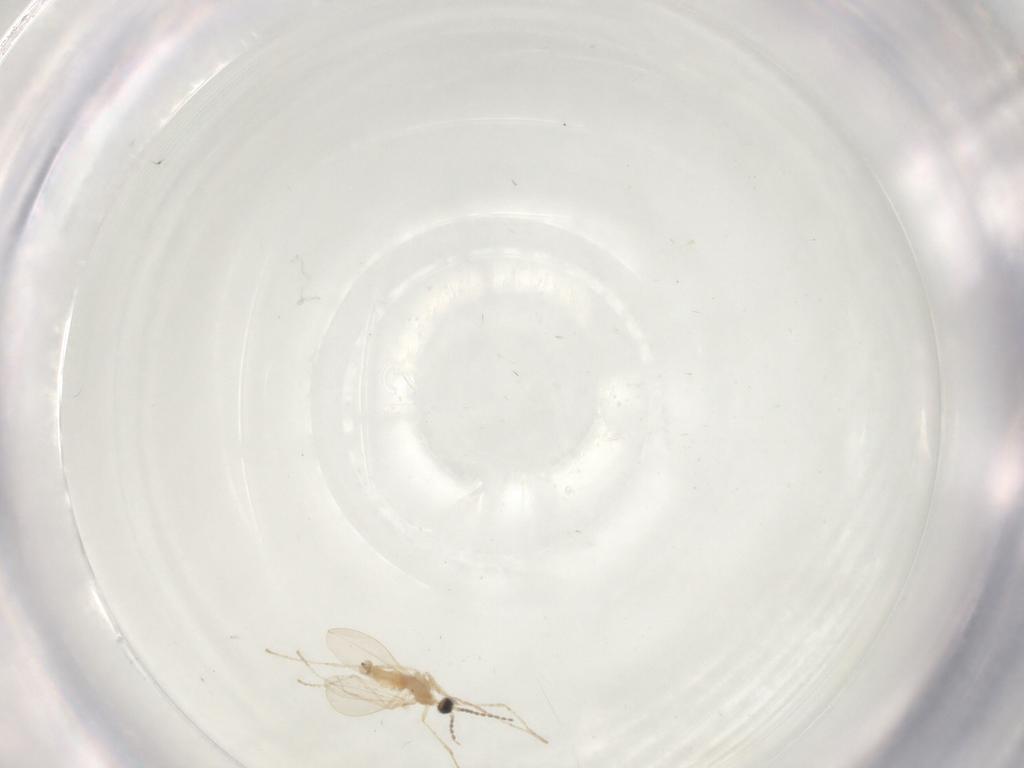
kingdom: Animalia
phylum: Arthropoda
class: Insecta
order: Diptera
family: Cecidomyiidae
